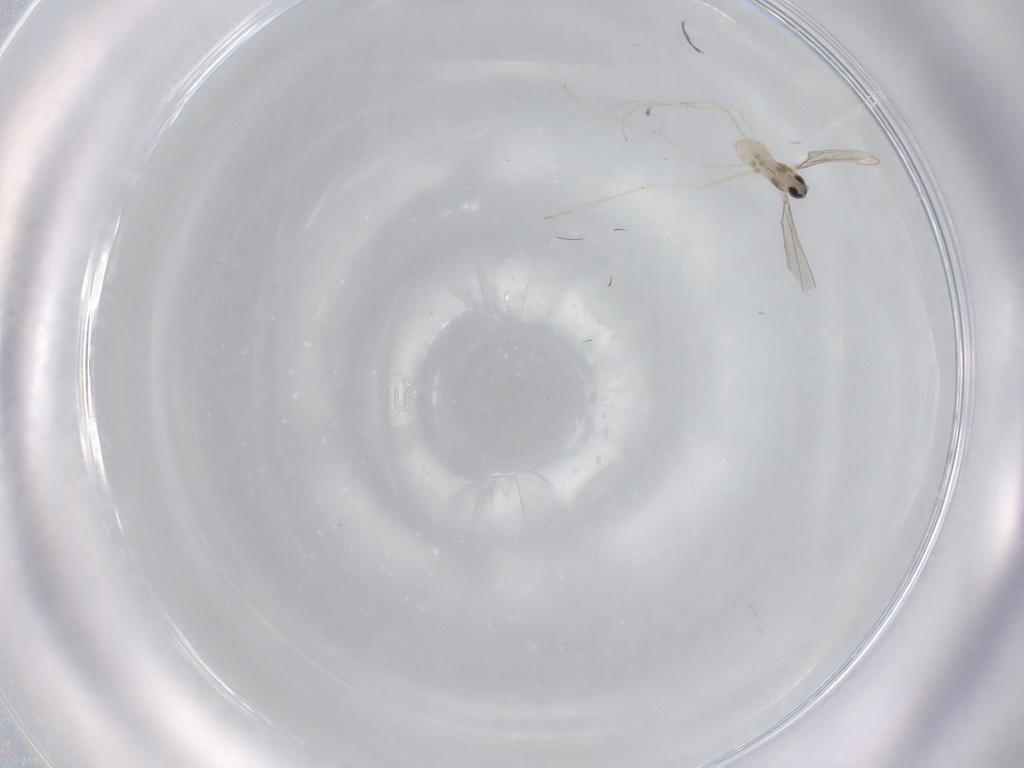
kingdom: Animalia
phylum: Arthropoda
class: Insecta
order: Diptera
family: Cecidomyiidae
